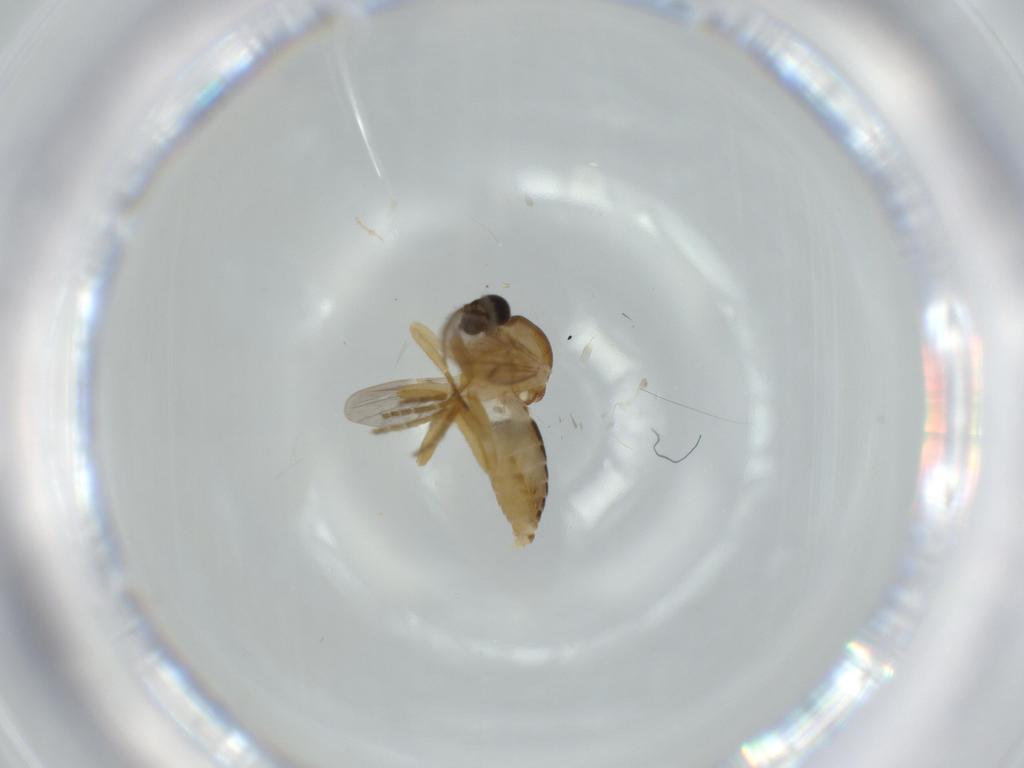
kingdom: Animalia
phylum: Arthropoda
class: Insecta
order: Diptera
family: Ceratopogonidae
